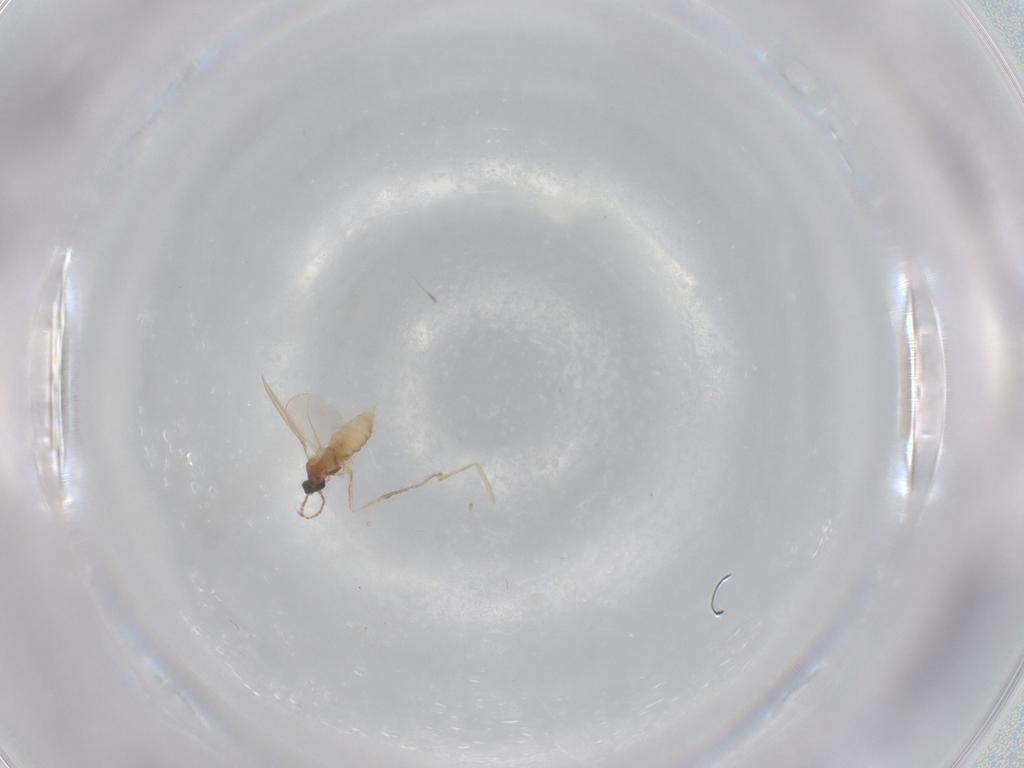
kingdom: Animalia
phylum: Arthropoda
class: Insecta
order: Diptera
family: Cecidomyiidae
